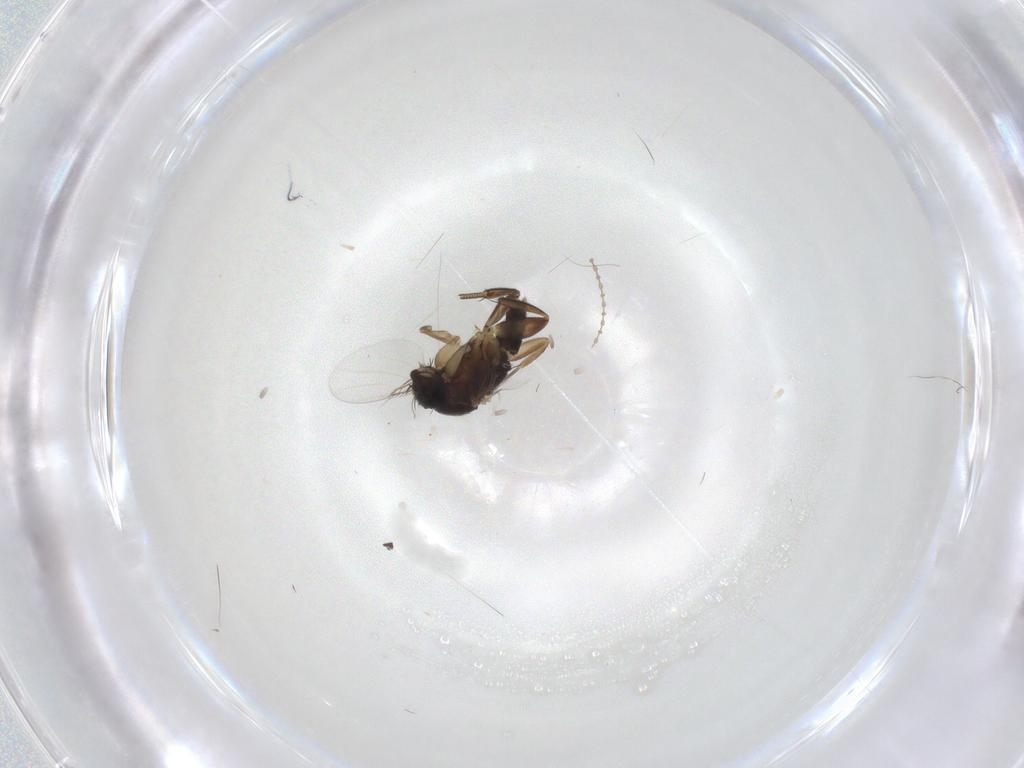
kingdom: Animalia
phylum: Arthropoda
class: Insecta
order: Diptera
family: Phoridae
